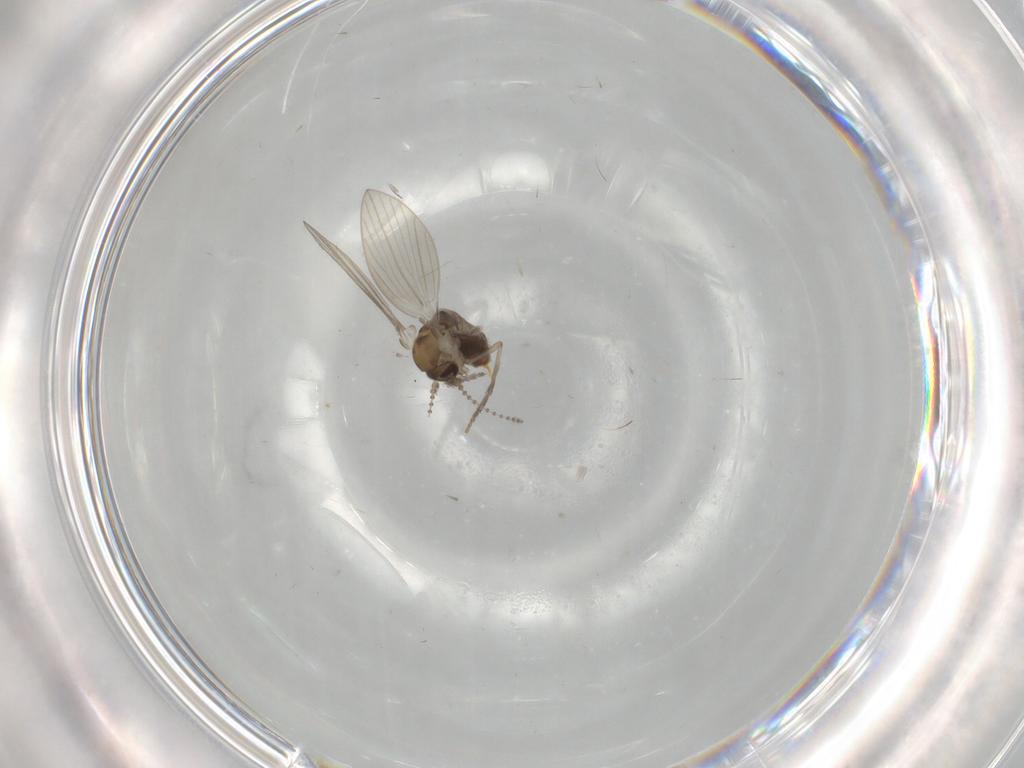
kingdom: Animalia
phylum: Arthropoda
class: Insecta
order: Diptera
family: Psychodidae
